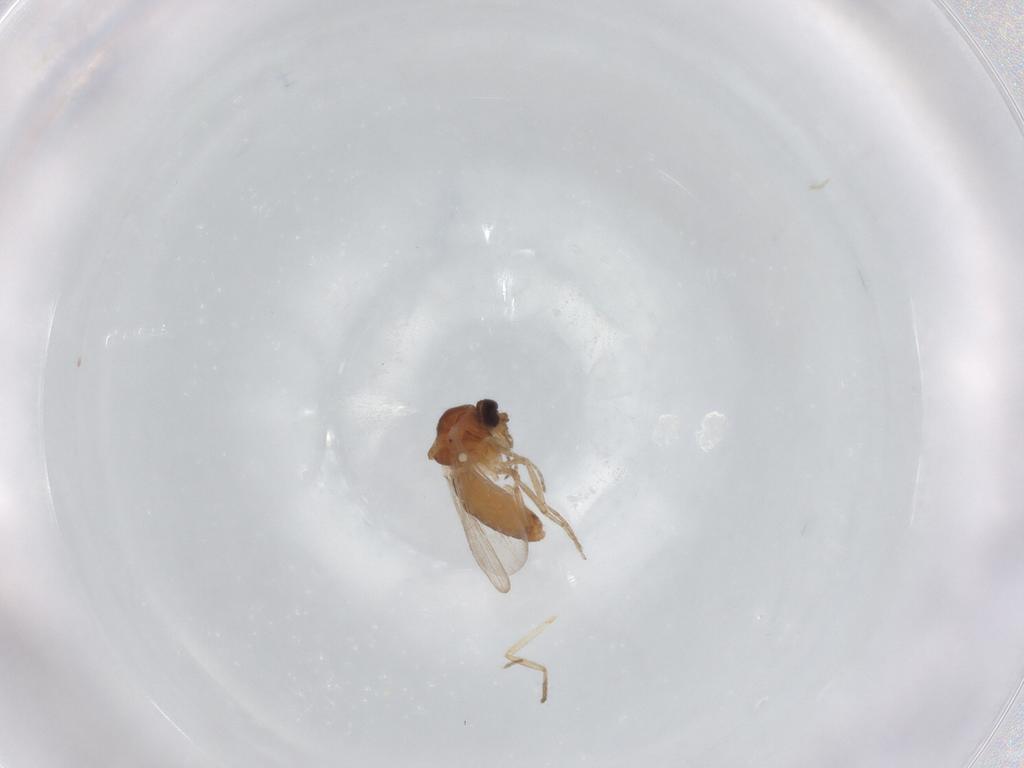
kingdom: Animalia
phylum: Arthropoda
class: Insecta
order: Diptera
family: Ceratopogonidae
